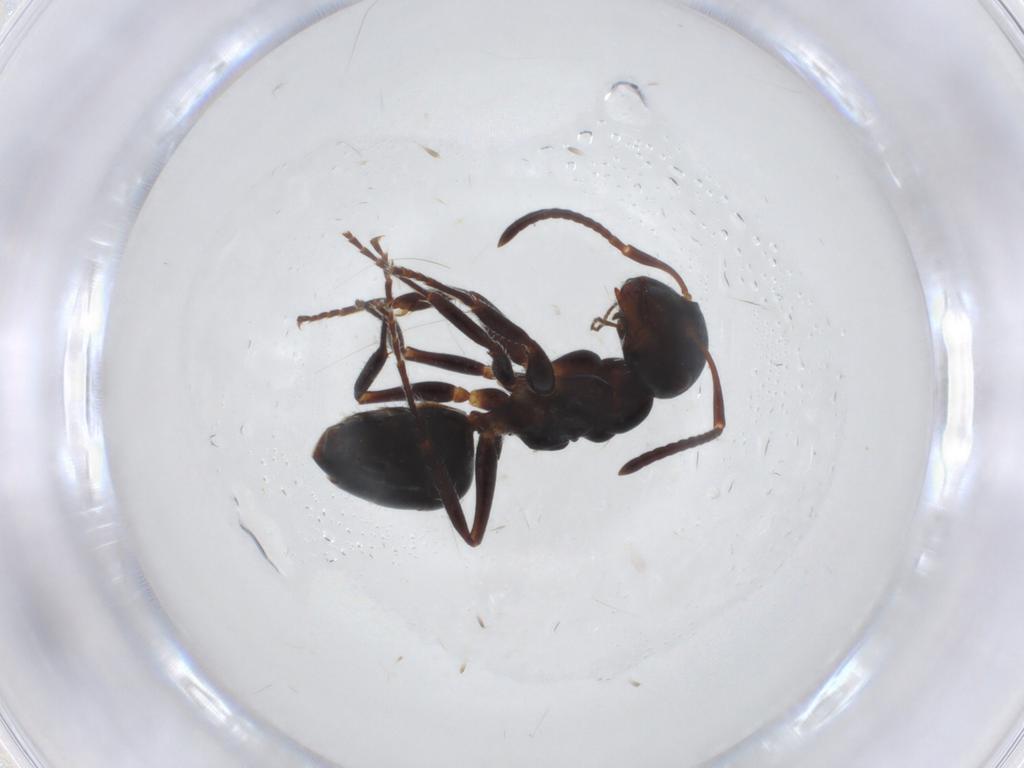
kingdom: Animalia
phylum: Arthropoda
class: Insecta
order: Hymenoptera
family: Formicidae
